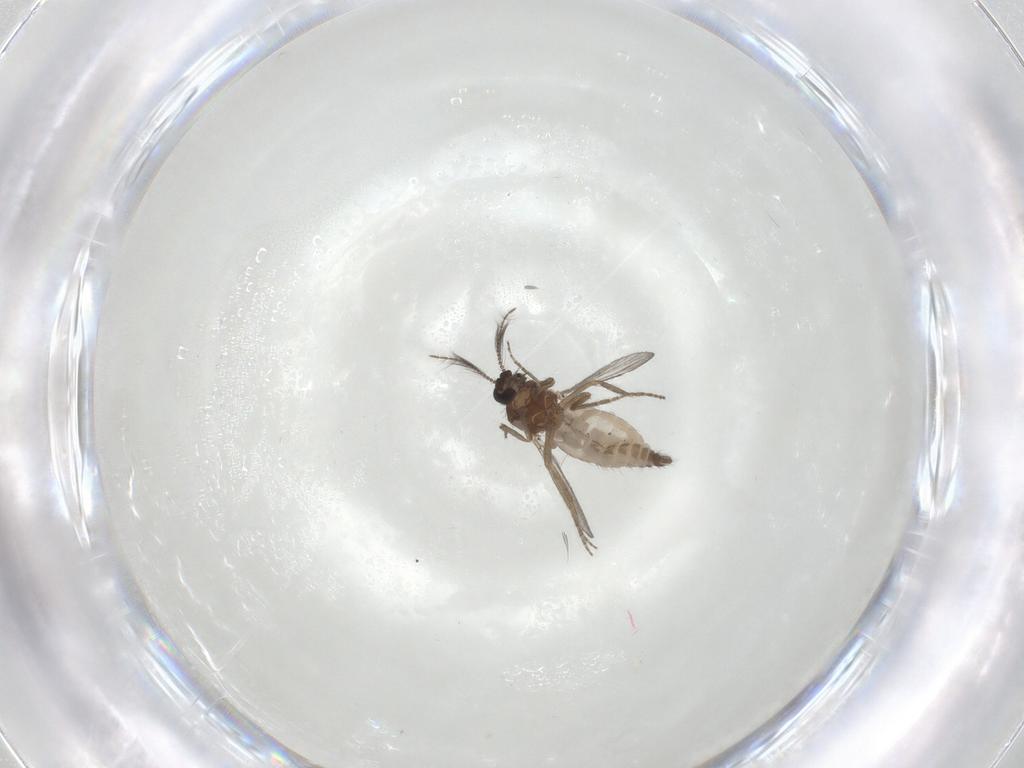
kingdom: Animalia
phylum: Arthropoda
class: Insecta
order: Diptera
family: Ceratopogonidae
